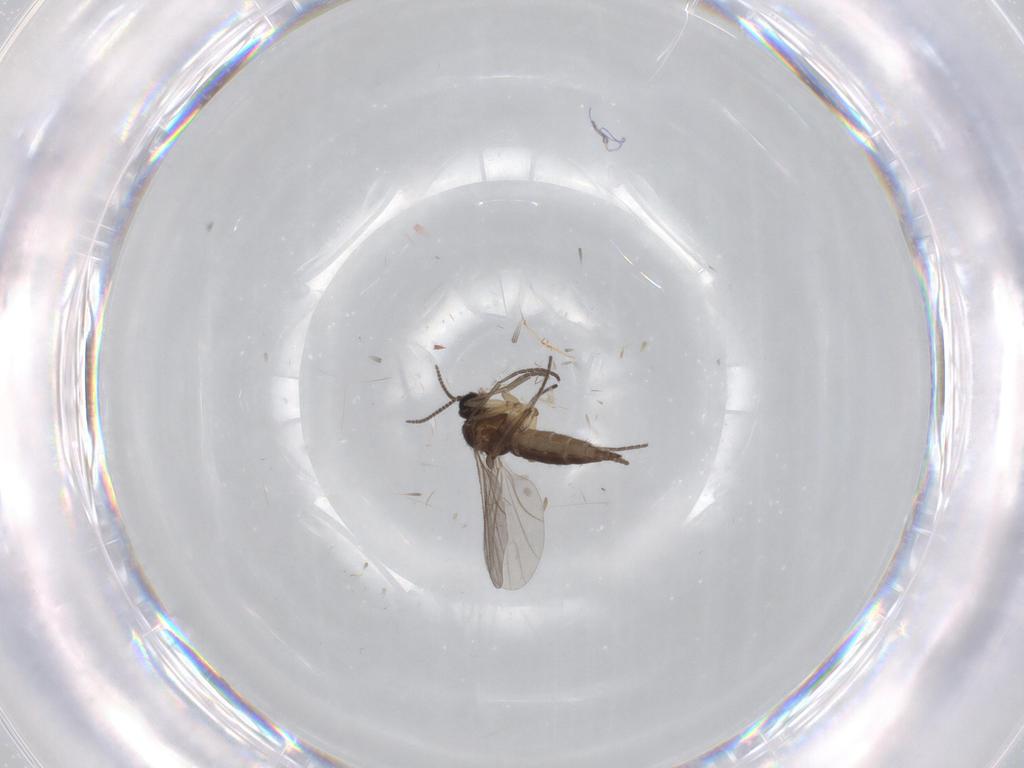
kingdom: Animalia
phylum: Arthropoda
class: Insecta
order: Diptera
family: Sciaridae
